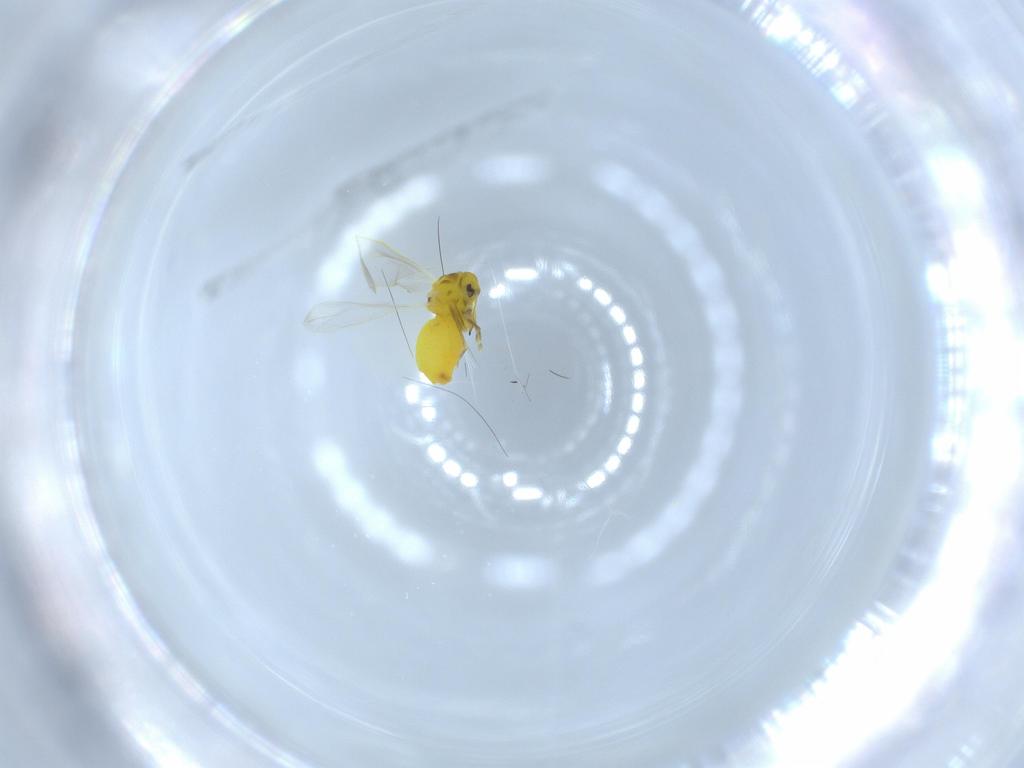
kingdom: Animalia
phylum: Arthropoda
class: Insecta
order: Hemiptera
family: Aleyrodidae
